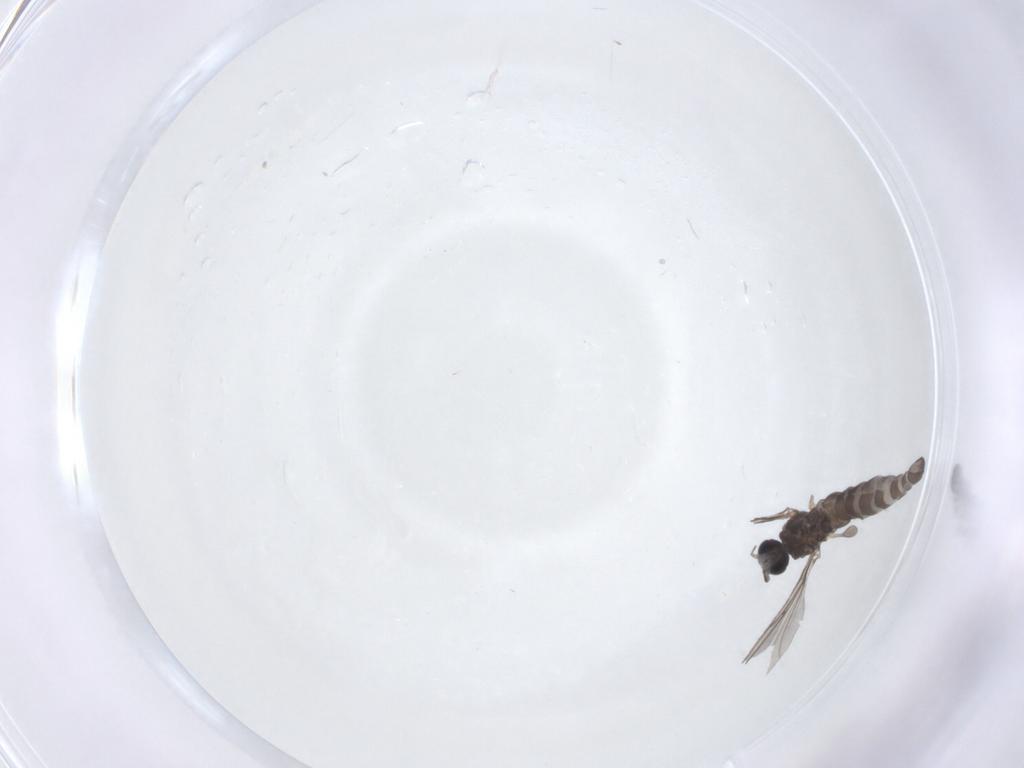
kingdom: Animalia
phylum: Arthropoda
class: Insecta
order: Diptera
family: Sciaridae
